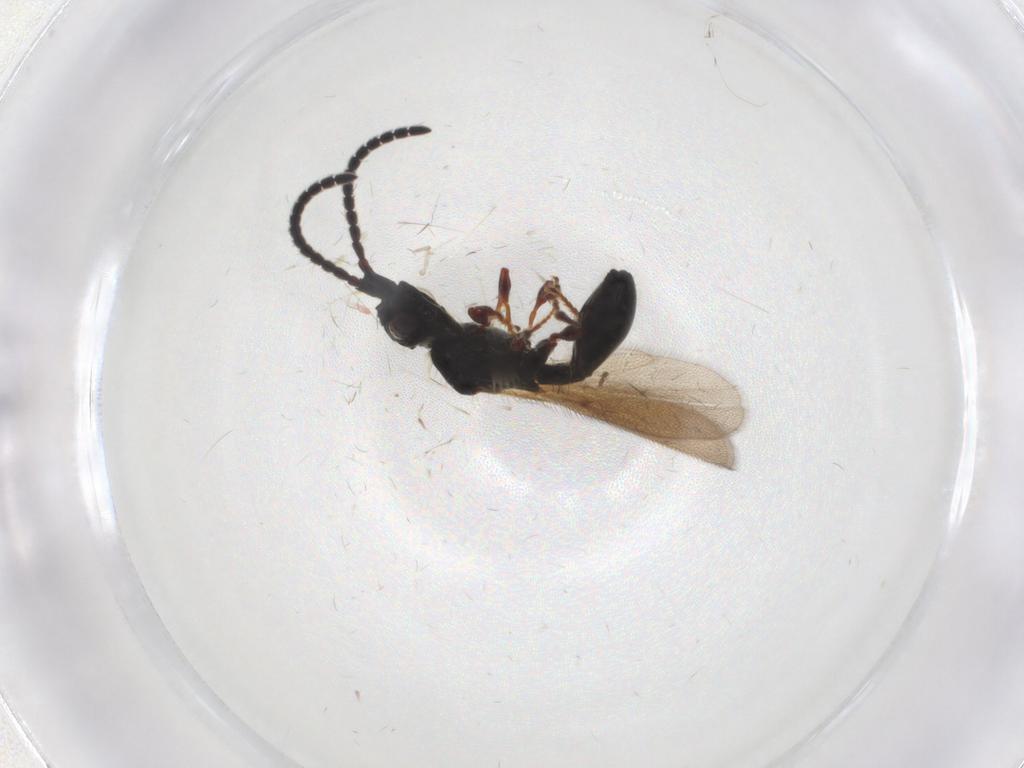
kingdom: Animalia
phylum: Arthropoda
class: Insecta
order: Hymenoptera
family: Diapriidae
